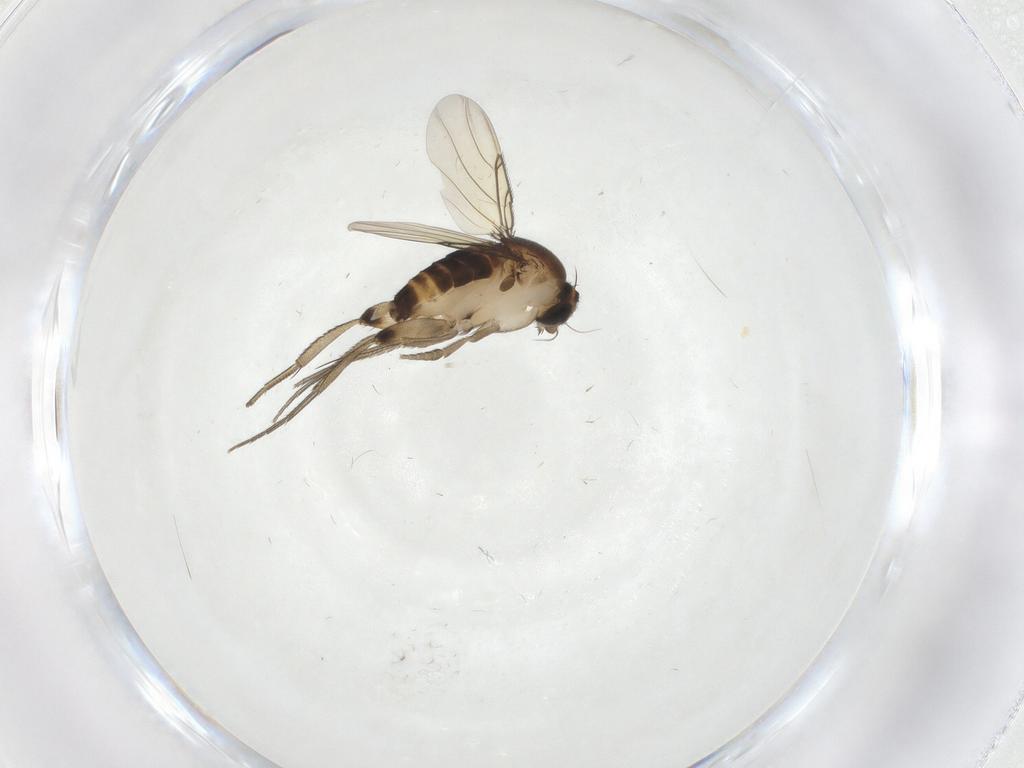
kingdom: Animalia
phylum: Arthropoda
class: Insecta
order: Diptera
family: Phoridae
